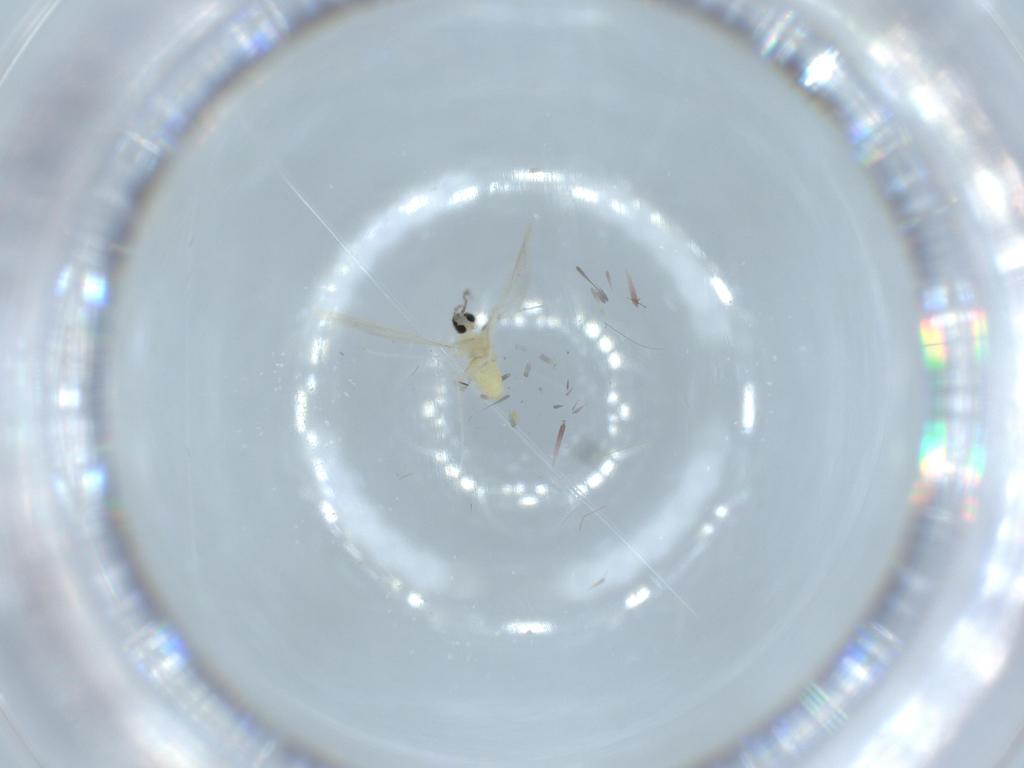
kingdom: Animalia
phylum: Arthropoda
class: Insecta
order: Diptera
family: Cecidomyiidae
